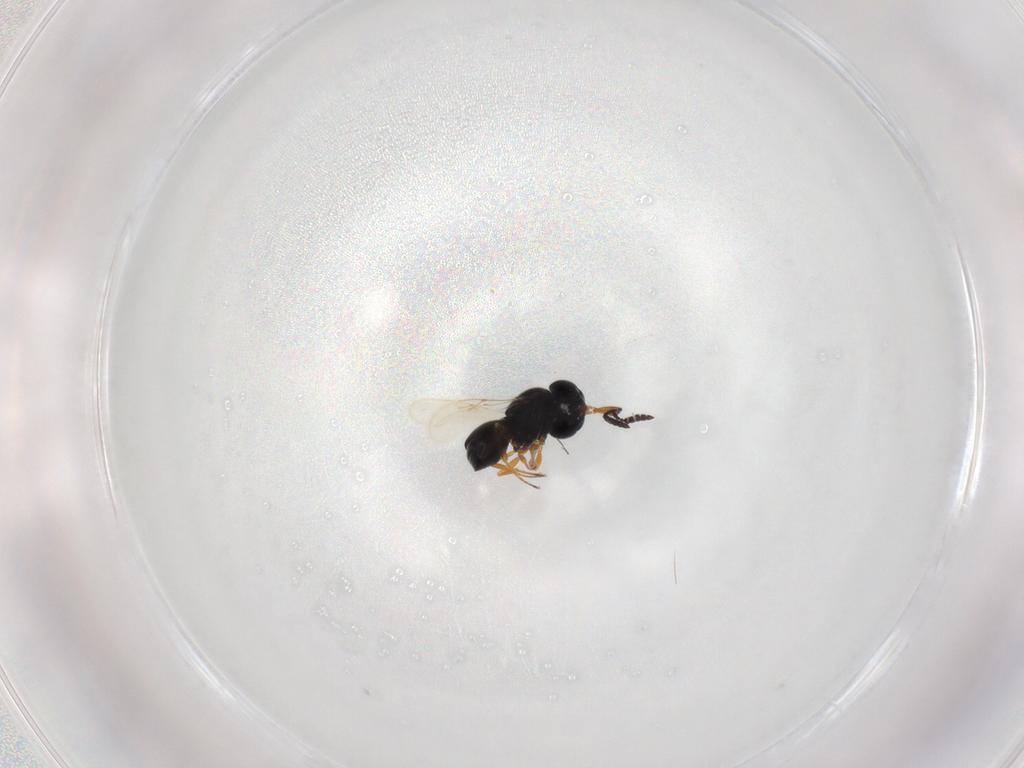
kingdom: Animalia
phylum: Arthropoda
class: Insecta
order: Hymenoptera
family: Scelionidae
